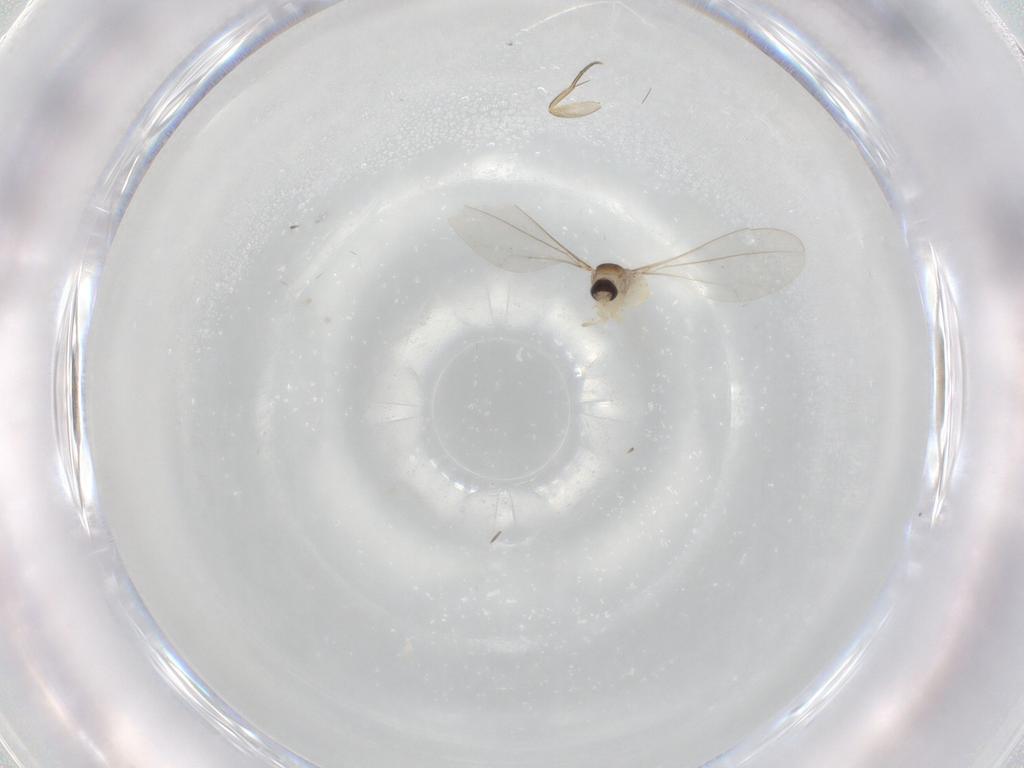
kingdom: Animalia
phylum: Arthropoda
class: Insecta
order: Diptera
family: Cecidomyiidae
